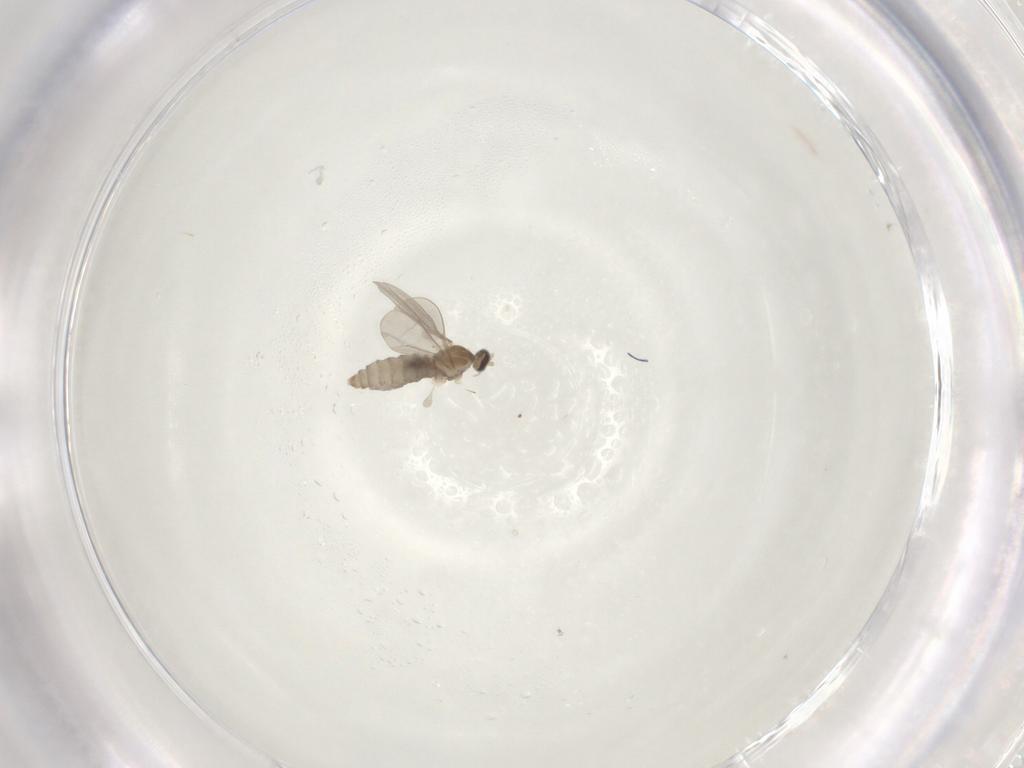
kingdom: Animalia
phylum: Arthropoda
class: Insecta
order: Diptera
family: Cecidomyiidae
